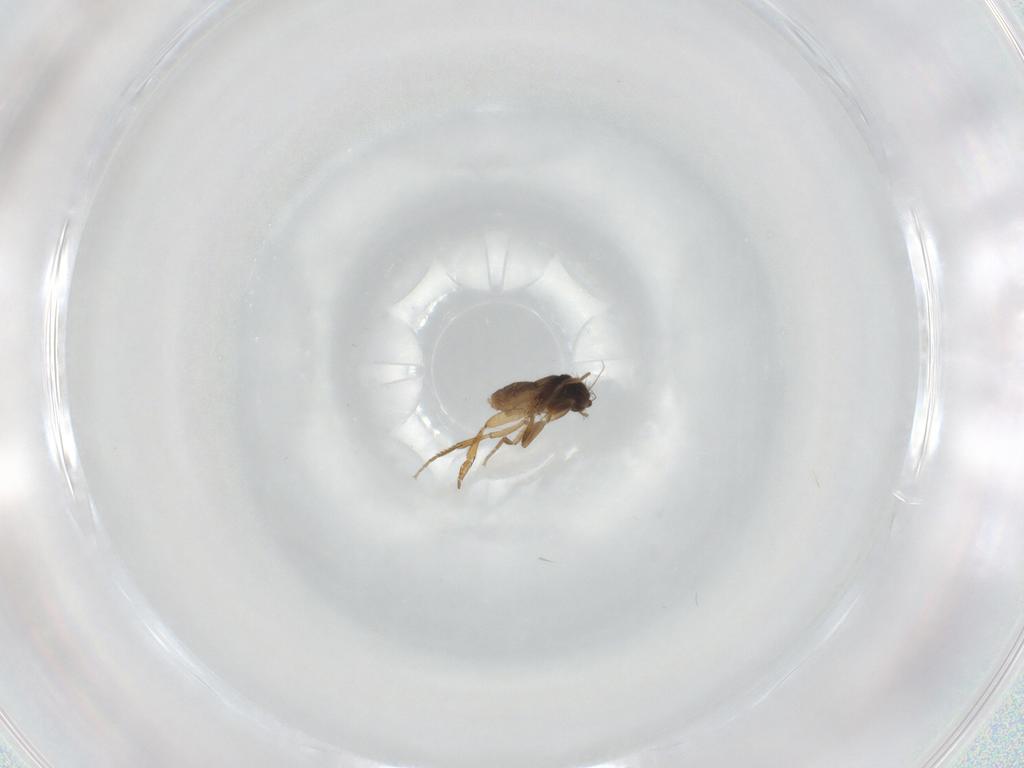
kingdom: Animalia
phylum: Arthropoda
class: Insecta
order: Diptera
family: Phoridae
